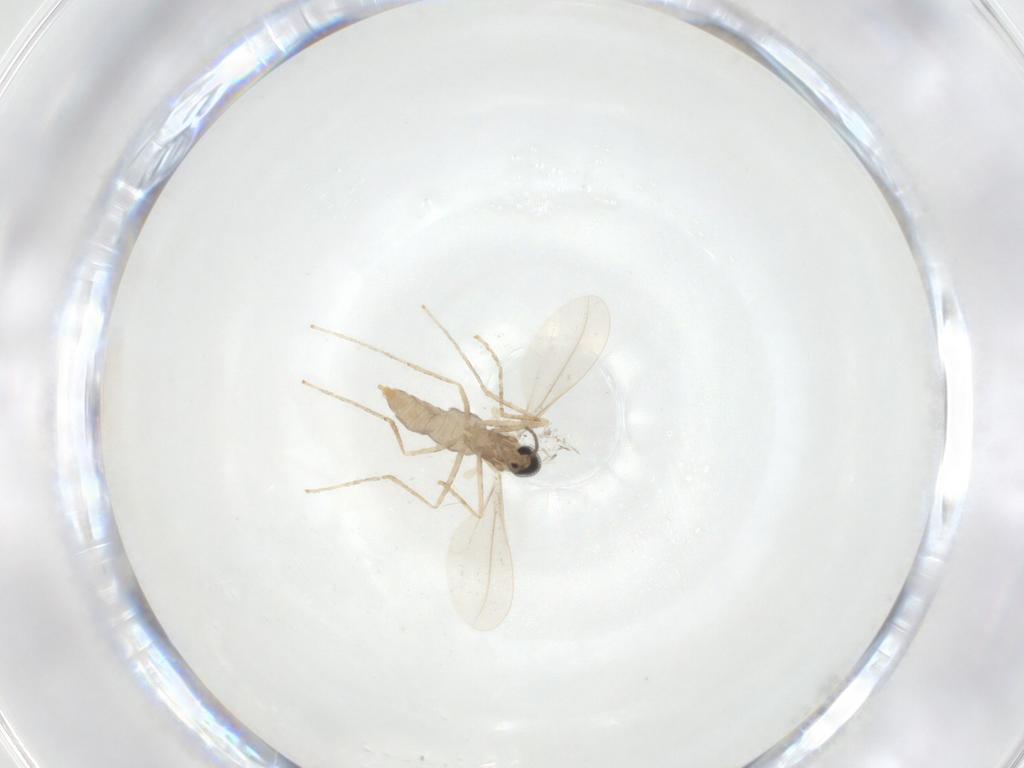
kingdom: Animalia
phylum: Arthropoda
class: Insecta
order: Diptera
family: Cecidomyiidae
